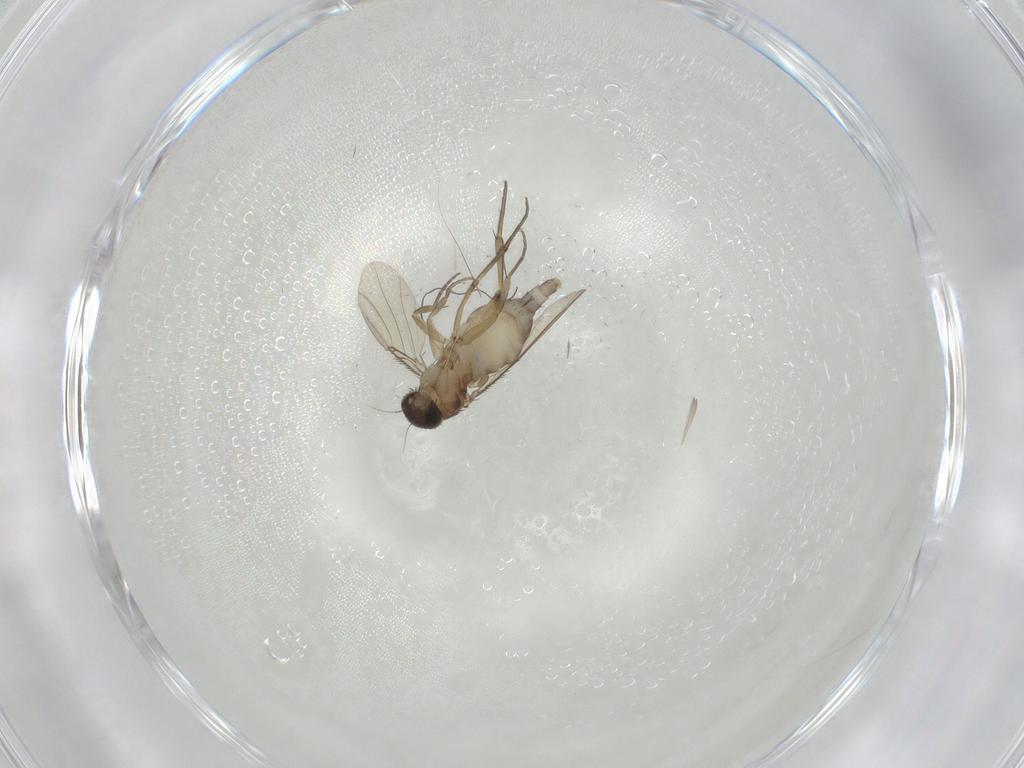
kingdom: Animalia
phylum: Arthropoda
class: Insecta
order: Diptera
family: Phoridae
